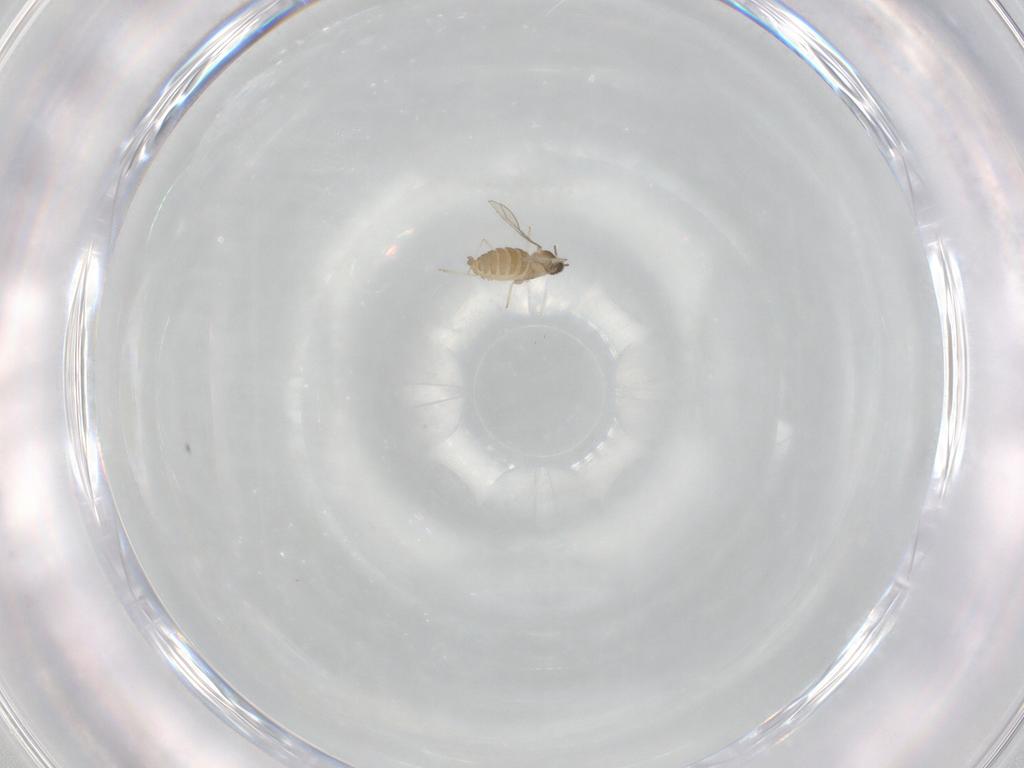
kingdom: Animalia
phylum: Arthropoda
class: Insecta
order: Diptera
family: Cecidomyiidae
